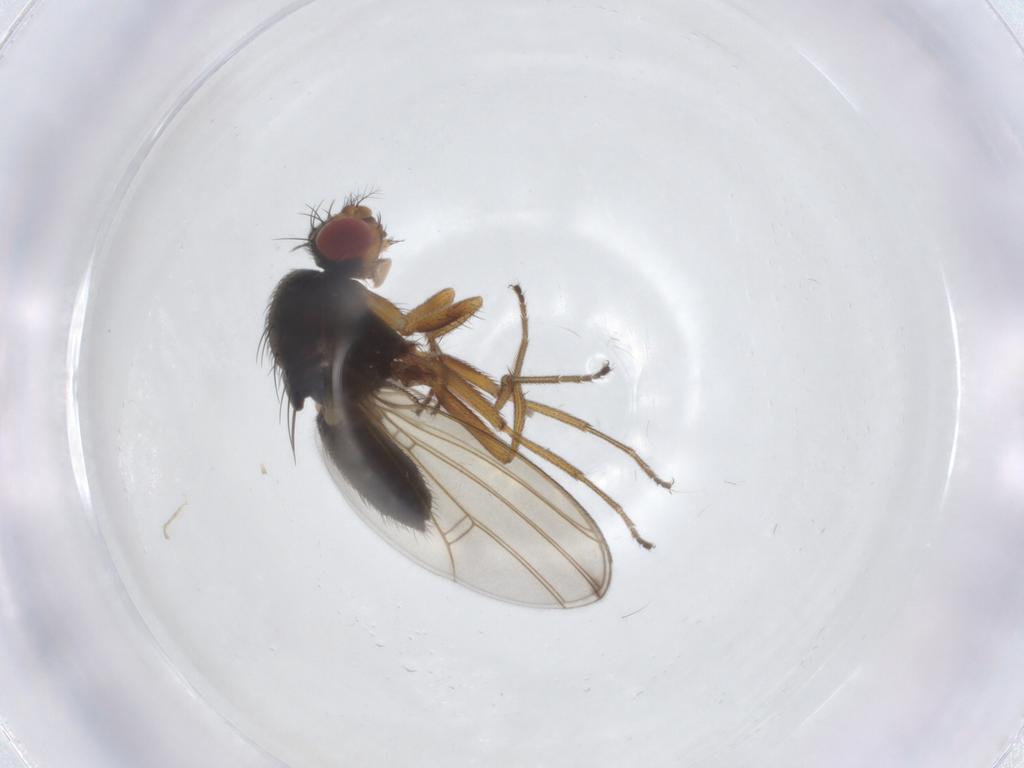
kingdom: Animalia
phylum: Arthropoda
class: Insecta
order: Diptera
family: Drosophilidae
